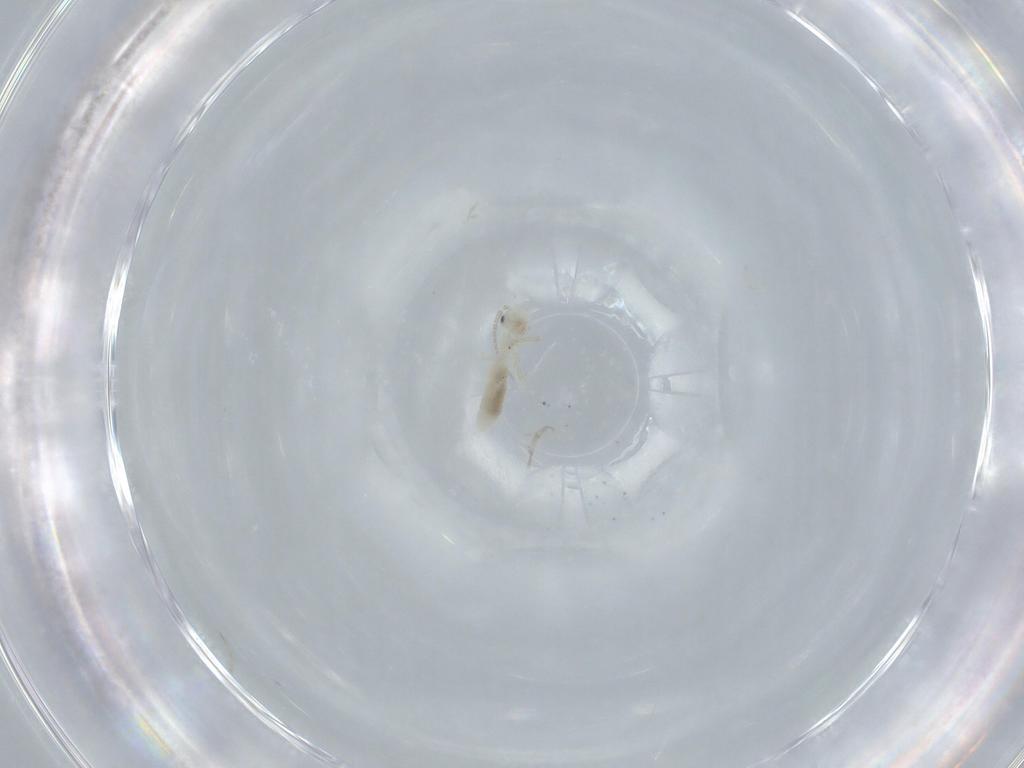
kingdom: Animalia
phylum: Arthropoda
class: Insecta
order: Psocodea
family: Caeciliusidae
